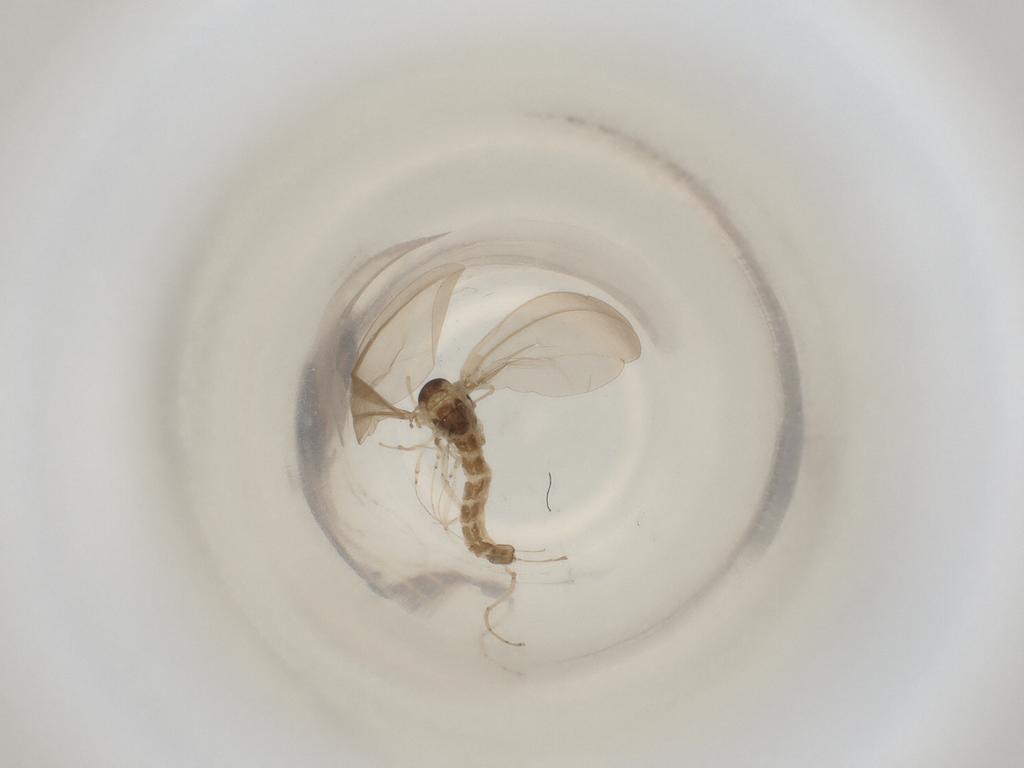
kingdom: Animalia
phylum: Arthropoda
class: Insecta
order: Diptera
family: Cecidomyiidae
